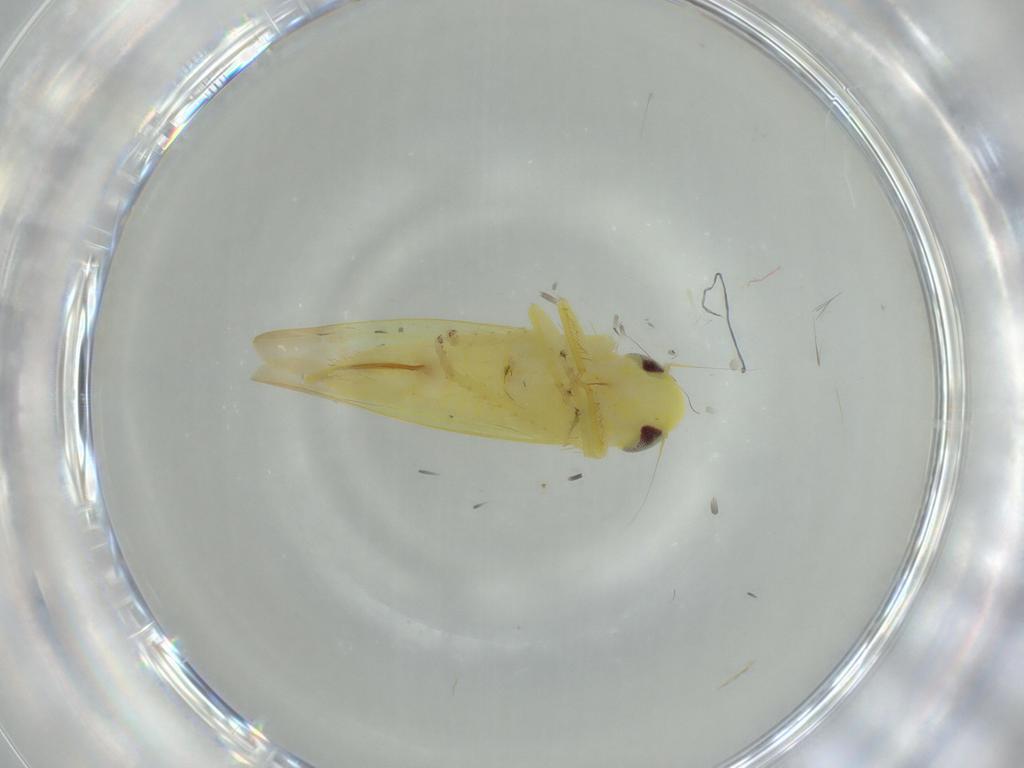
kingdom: Animalia
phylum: Arthropoda
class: Insecta
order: Hemiptera
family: Cicadellidae
